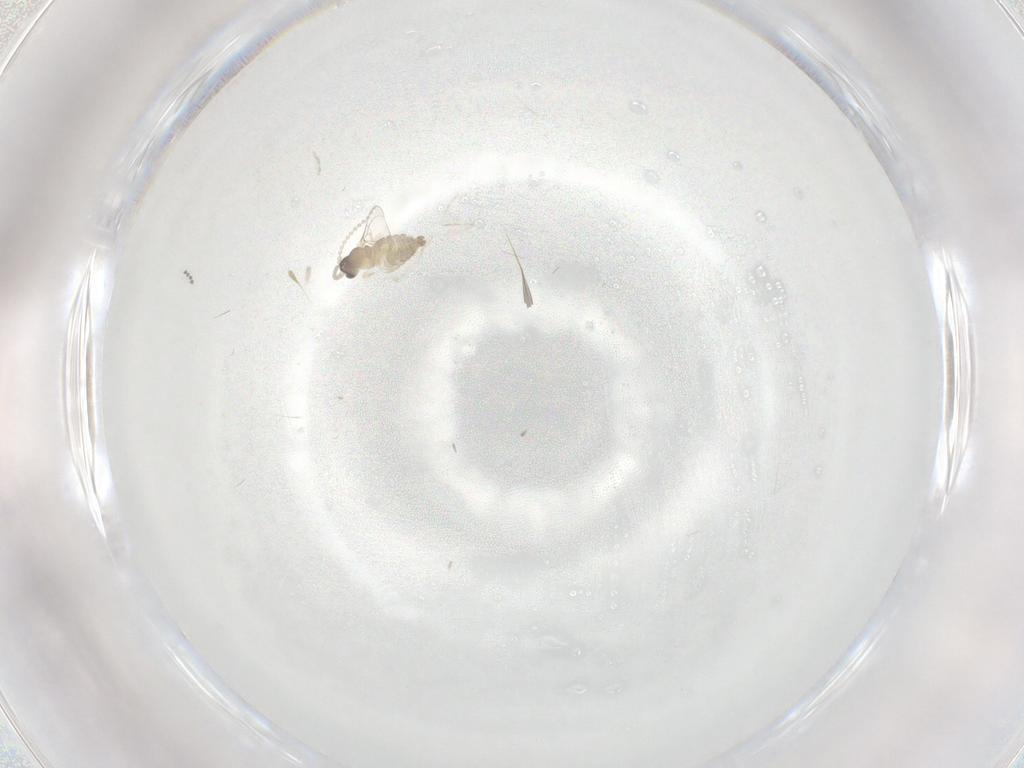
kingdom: Animalia
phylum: Arthropoda
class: Insecta
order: Diptera
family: Cecidomyiidae
